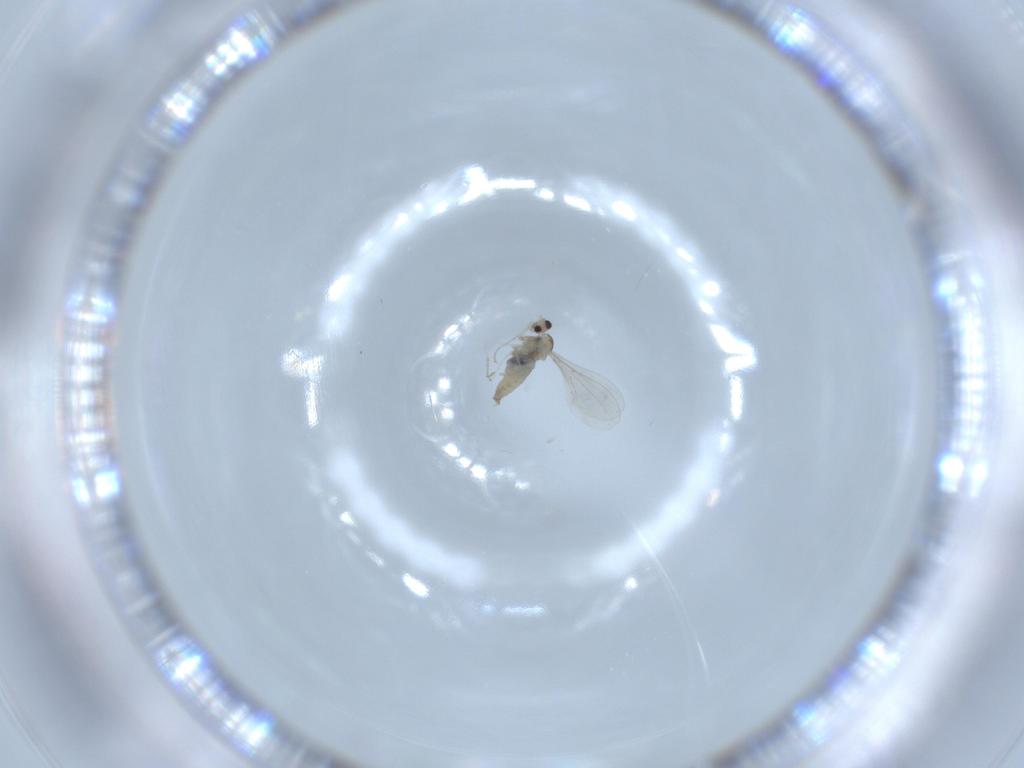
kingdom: Animalia
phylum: Arthropoda
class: Insecta
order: Diptera
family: Cecidomyiidae
